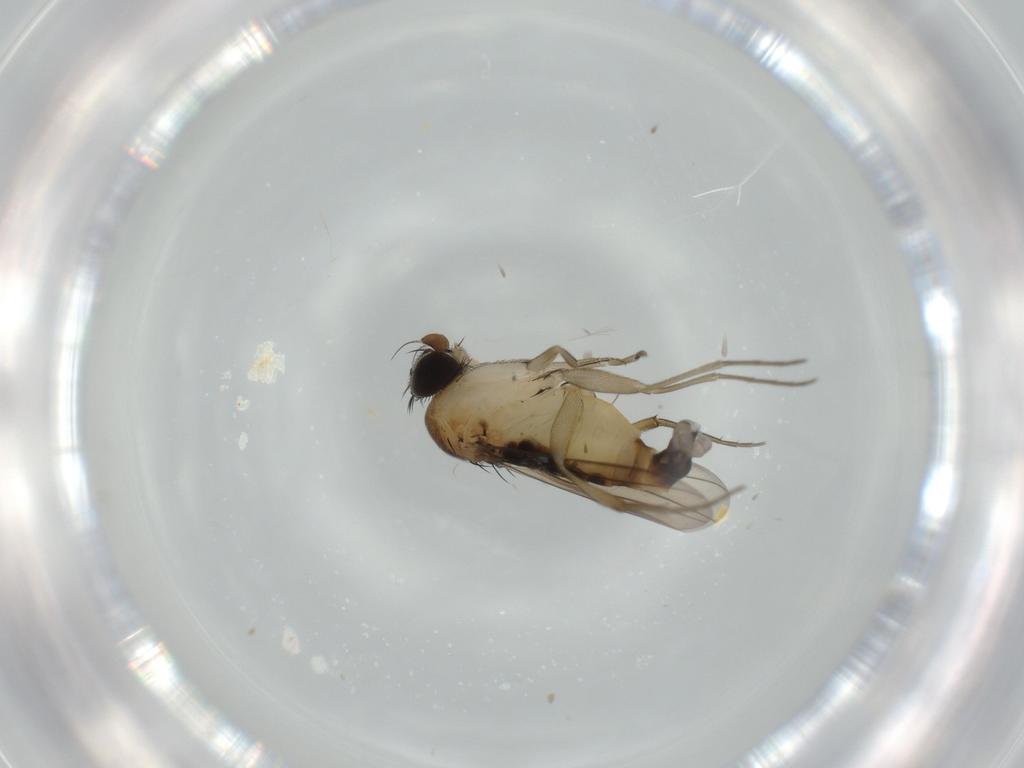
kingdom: Animalia
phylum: Arthropoda
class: Insecta
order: Diptera
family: Phoridae
